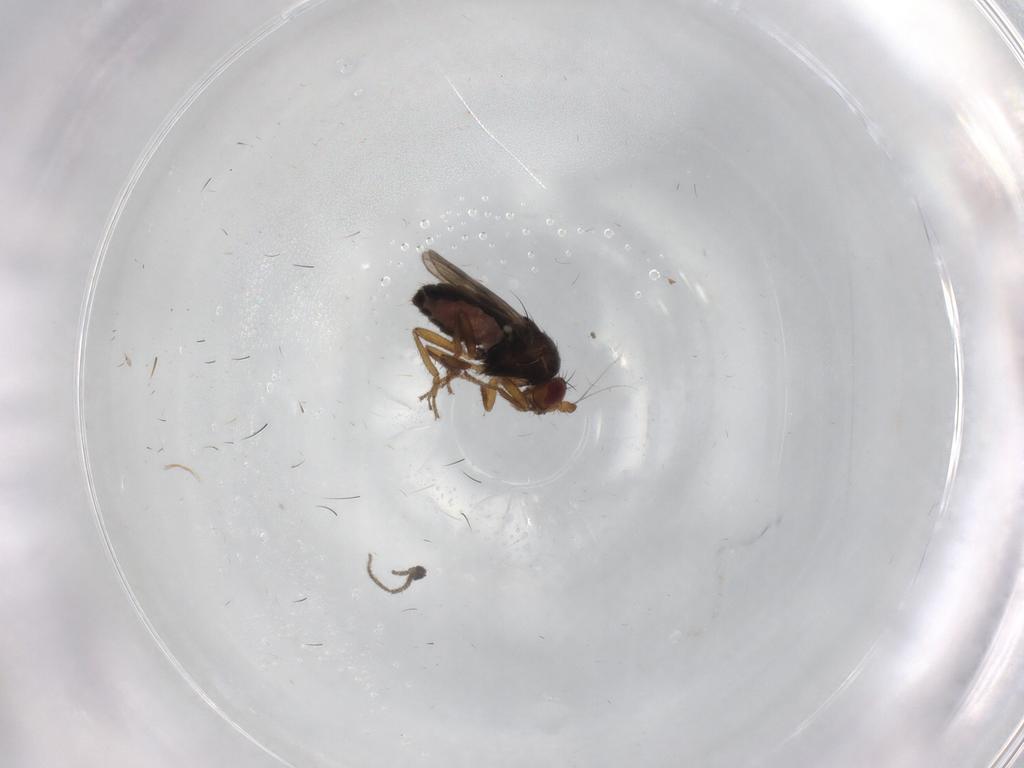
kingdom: Animalia
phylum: Arthropoda
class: Insecta
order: Diptera
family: Sphaeroceridae
